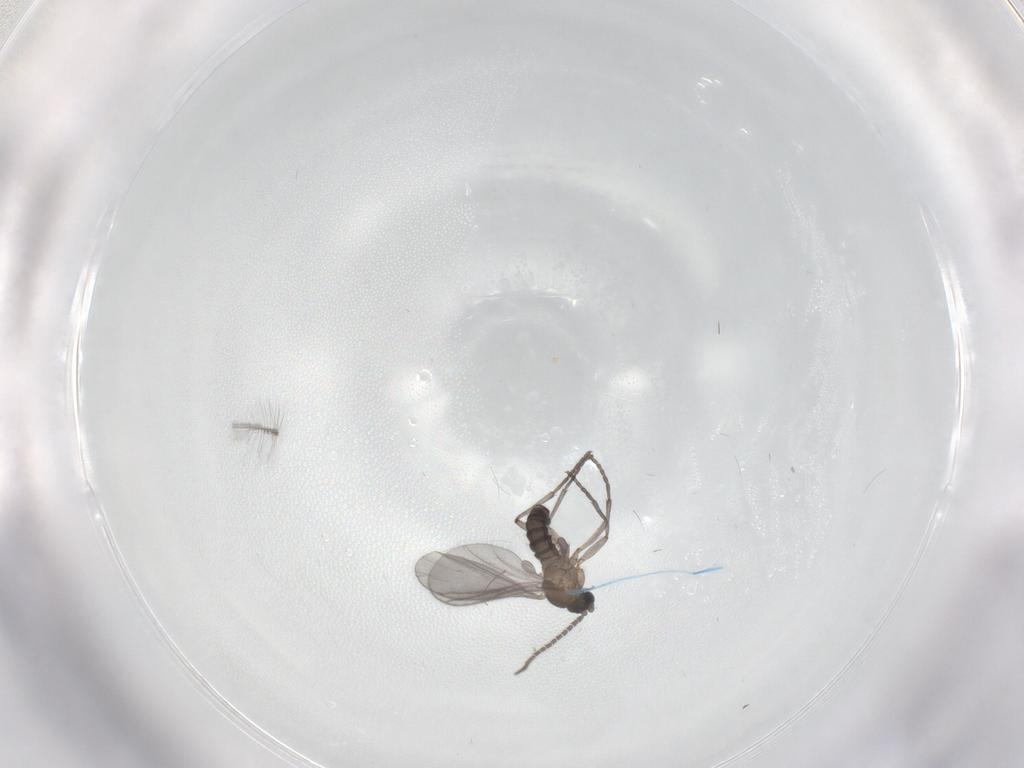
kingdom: Animalia
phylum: Arthropoda
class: Insecta
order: Diptera
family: Sciaridae
